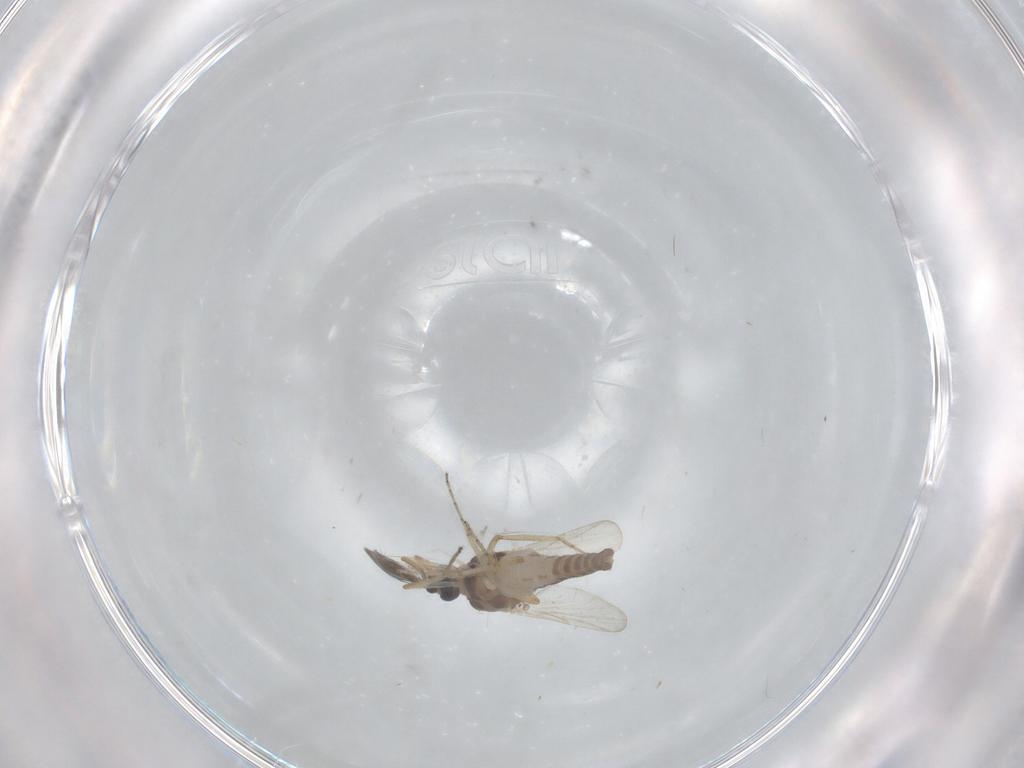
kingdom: Animalia
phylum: Arthropoda
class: Insecta
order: Diptera
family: Ceratopogonidae
